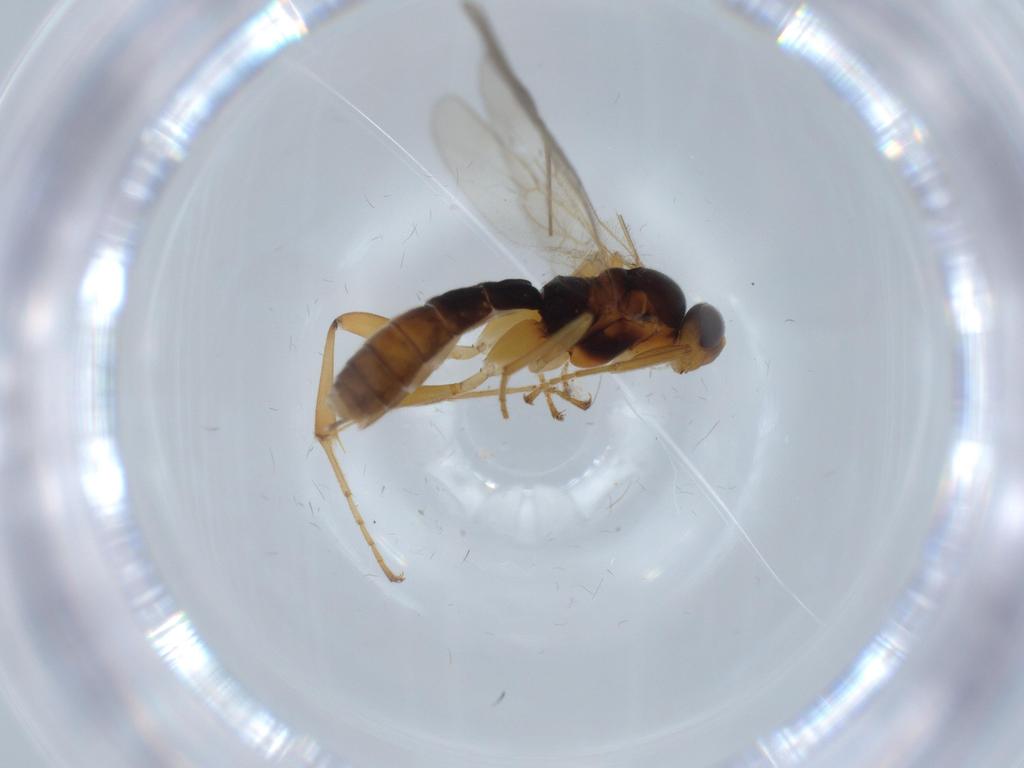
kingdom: Animalia
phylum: Arthropoda
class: Insecta
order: Hymenoptera
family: Ichneumonidae
